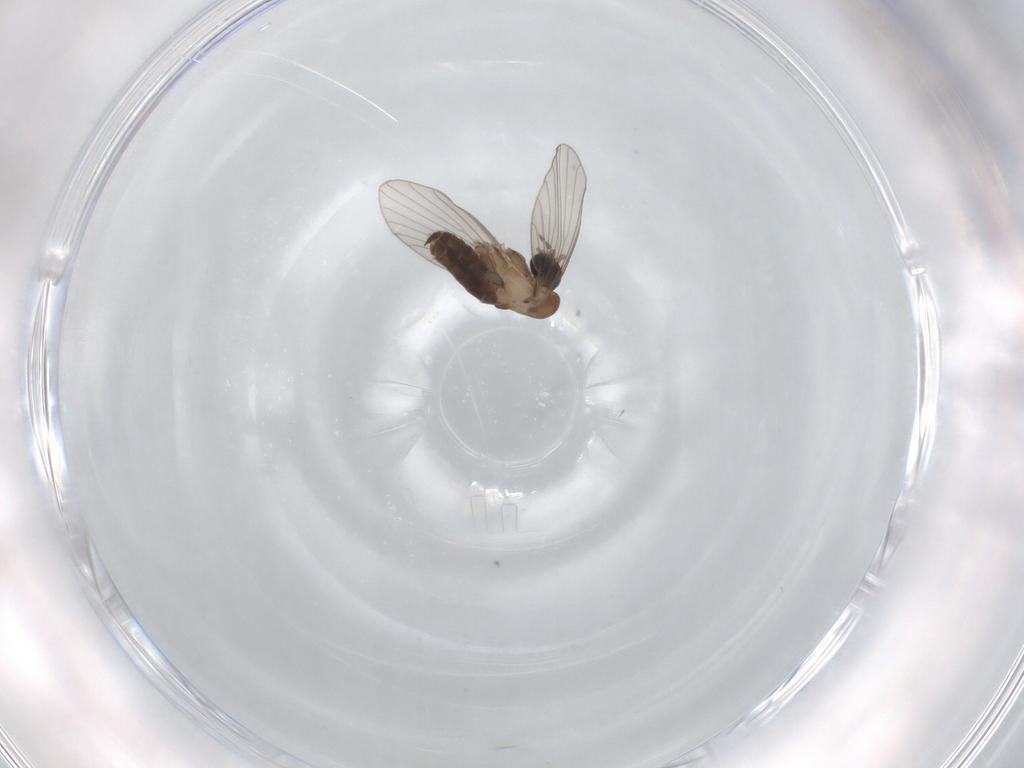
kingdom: Animalia
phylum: Arthropoda
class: Insecta
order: Diptera
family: Psychodidae
